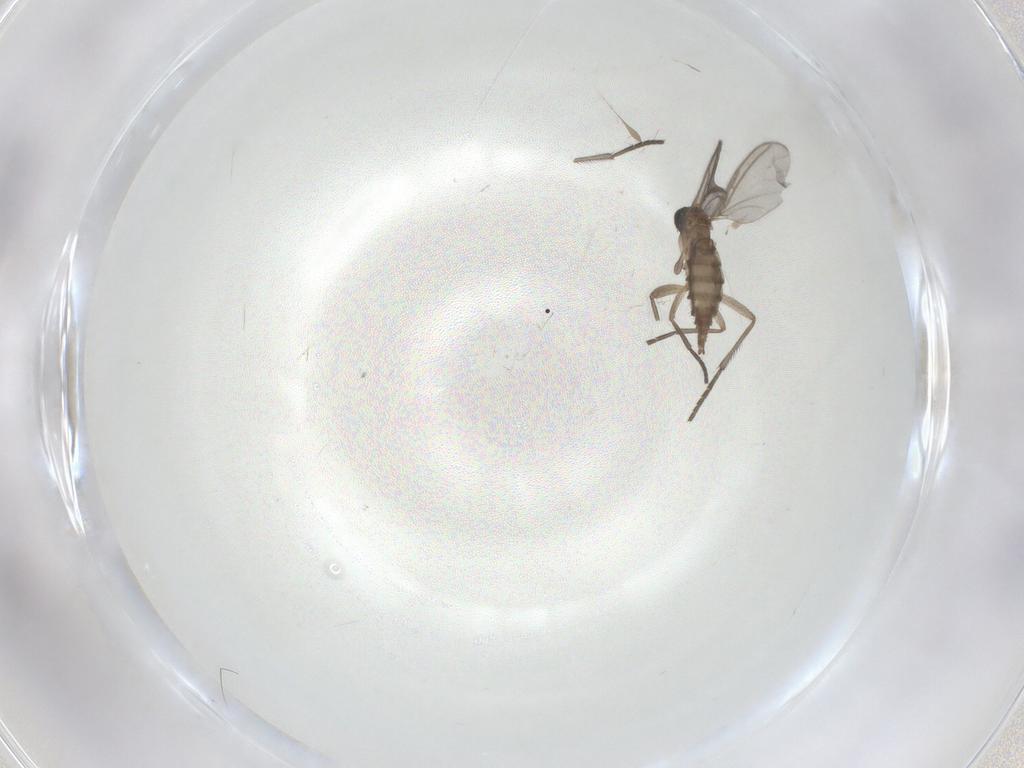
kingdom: Animalia
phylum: Arthropoda
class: Insecta
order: Diptera
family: Sciaridae
